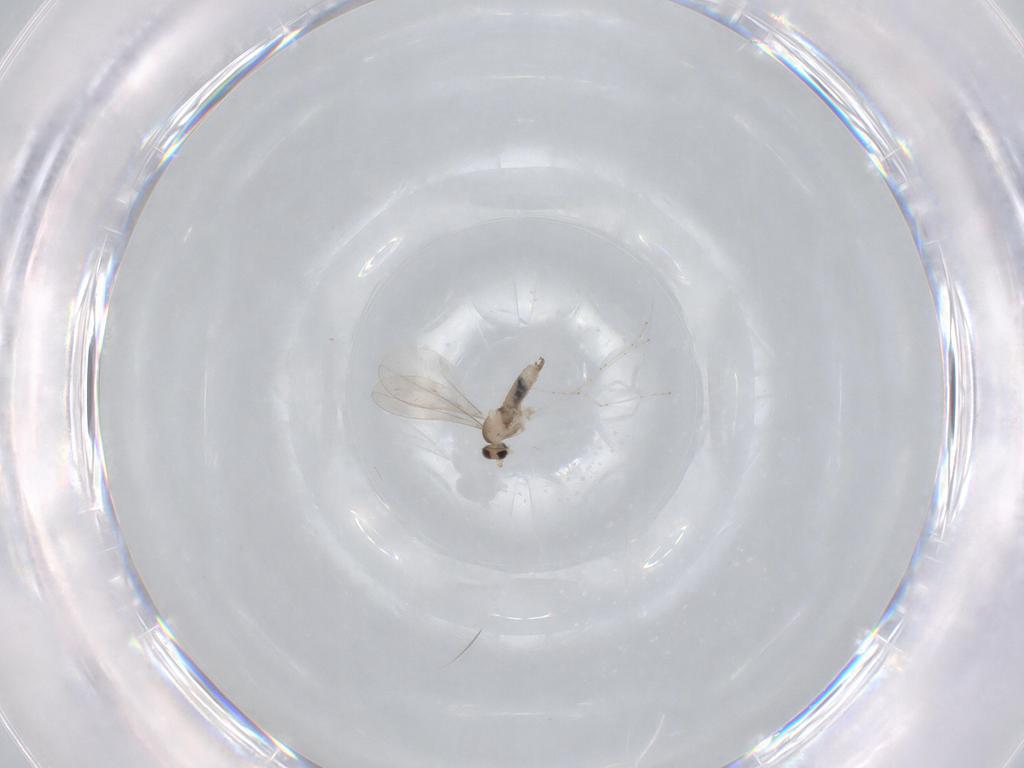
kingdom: Animalia
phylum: Arthropoda
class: Insecta
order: Diptera
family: Cecidomyiidae
